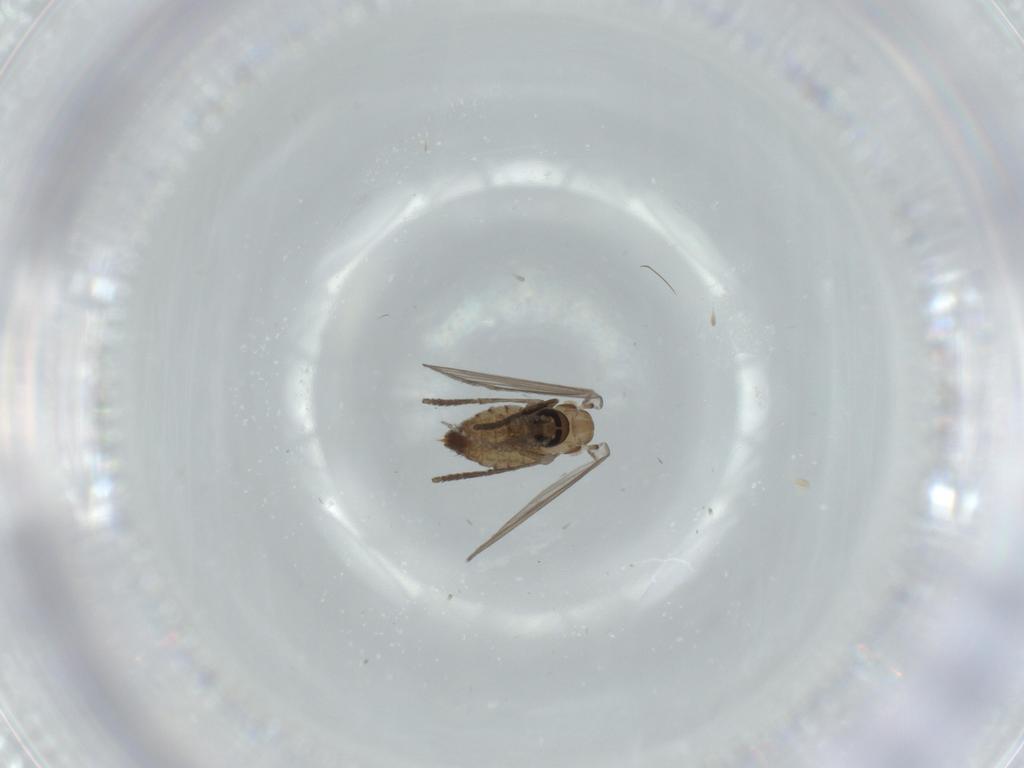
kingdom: Animalia
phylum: Arthropoda
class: Insecta
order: Diptera
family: Psychodidae
